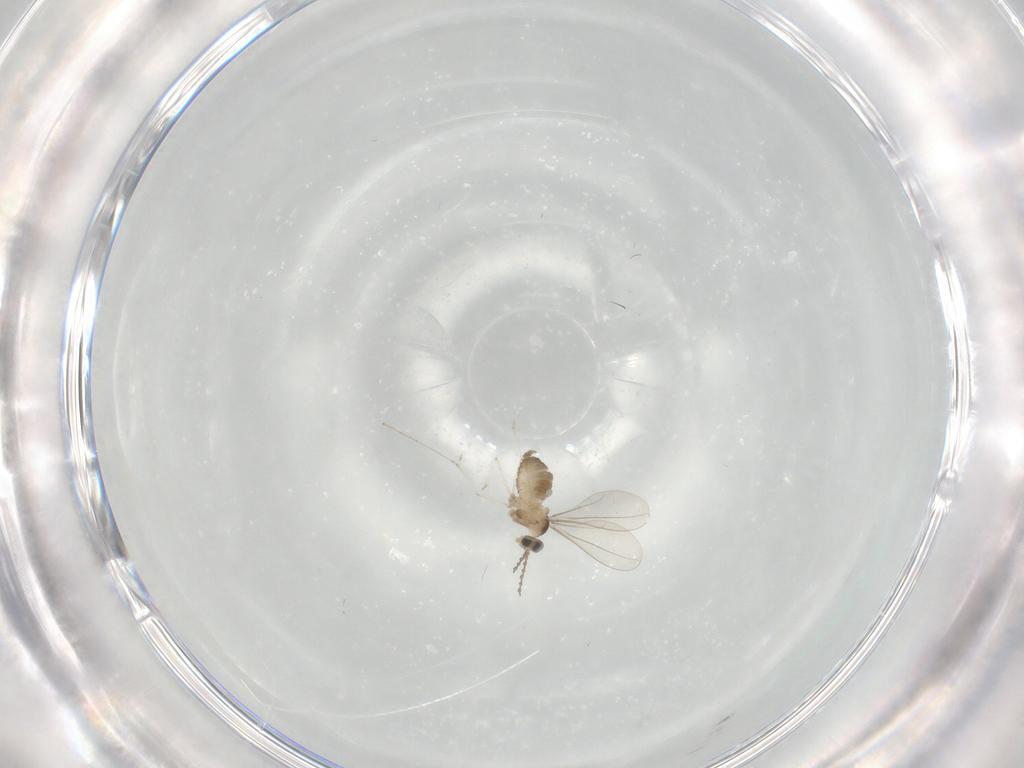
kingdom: Animalia
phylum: Arthropoda
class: Insecta
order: Diptera
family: Cecidomyiidae
